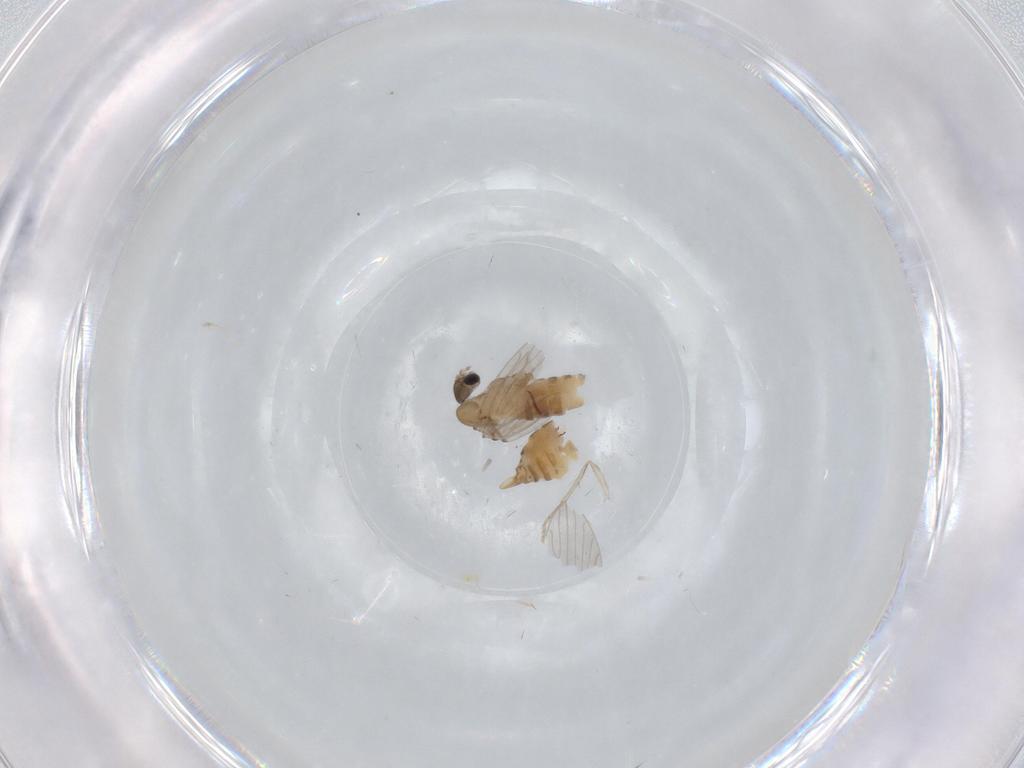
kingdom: Animalia
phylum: Arthropoda
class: Insecta
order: Diptera
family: Psychodidae
